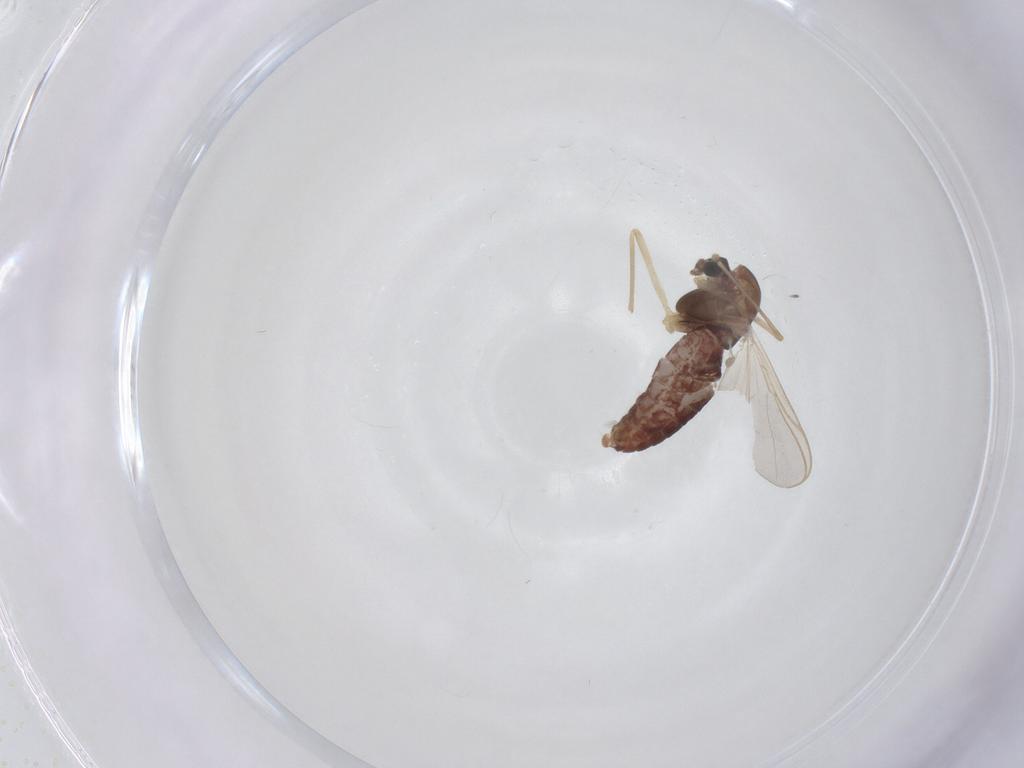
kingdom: Animalia
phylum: Arthropoda
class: Insecta
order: Diptera
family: Chironomidae
